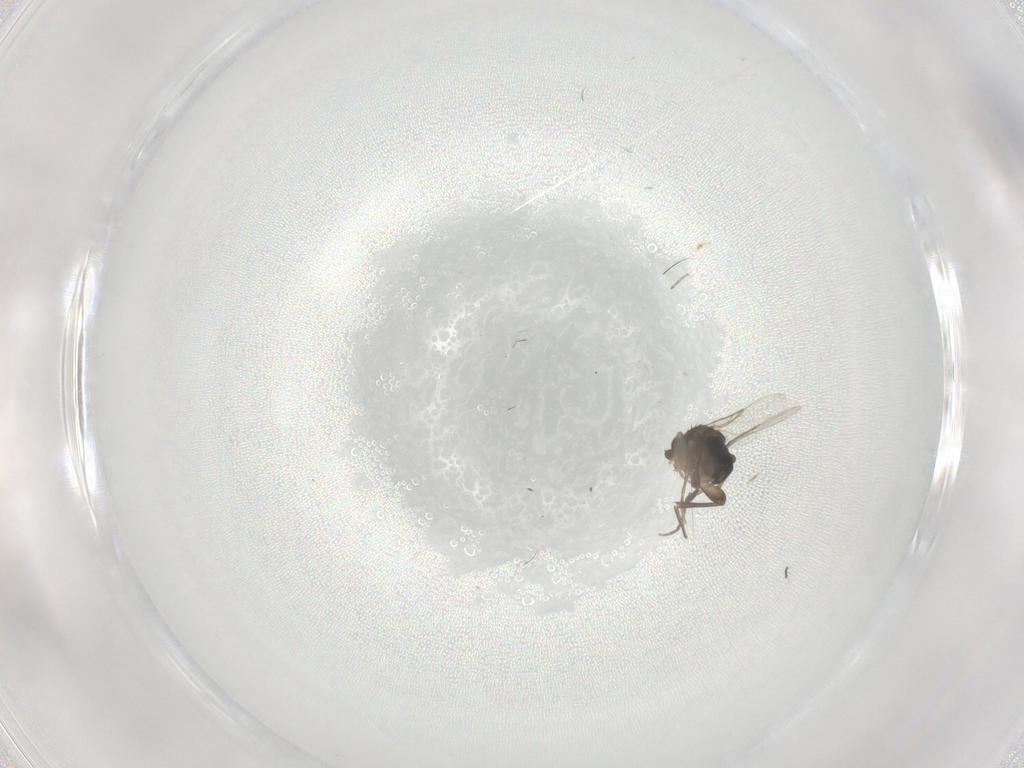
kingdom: Animalia
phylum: Arthropoda
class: Insecta
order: Diptera
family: Chironomidae
